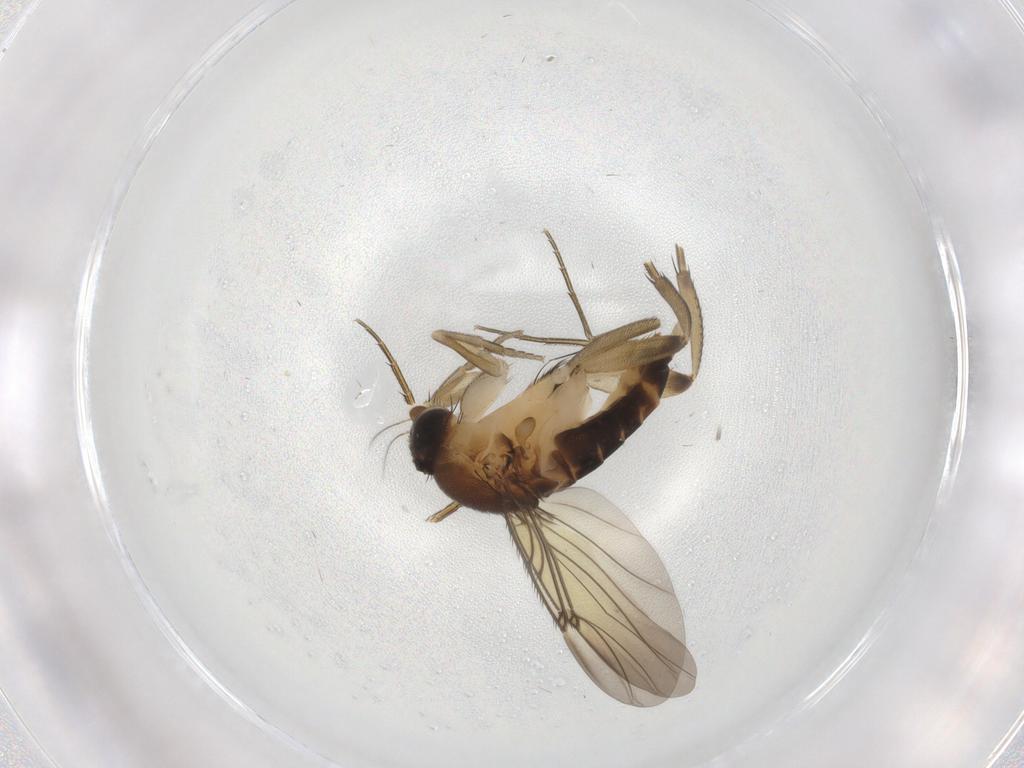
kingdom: Animalia
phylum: Arthropoda
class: Insecta
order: Diptera
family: Phoridae
